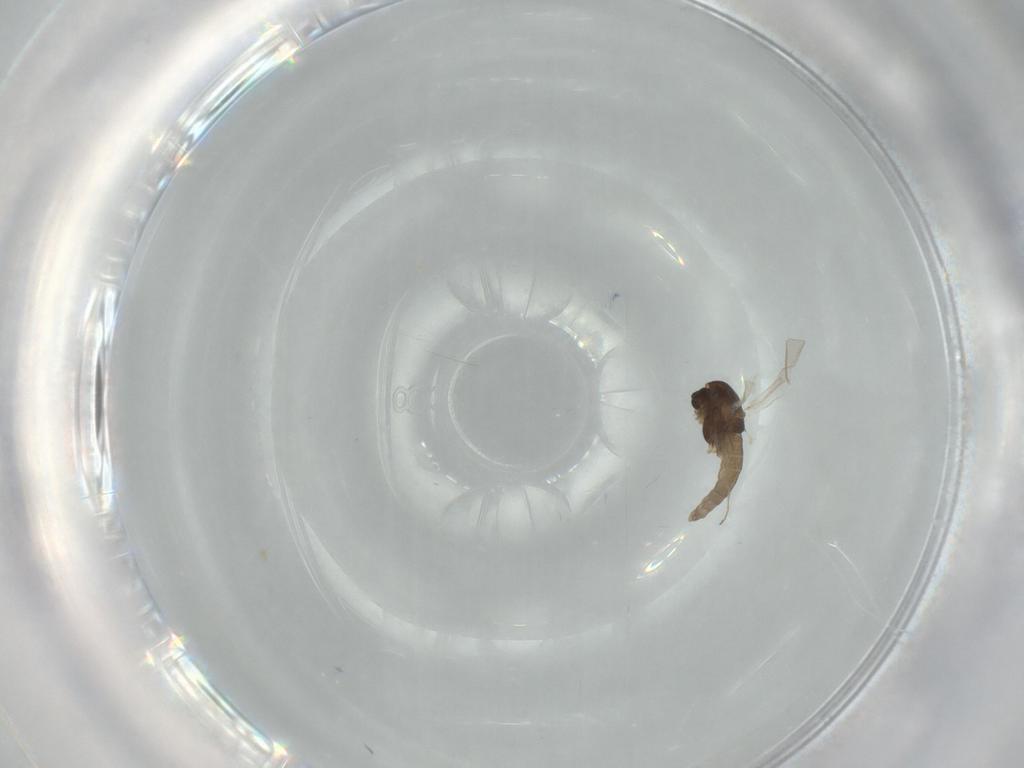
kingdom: Animalia
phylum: Arthropoda
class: Insecta
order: Diptera
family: Chironomidae
